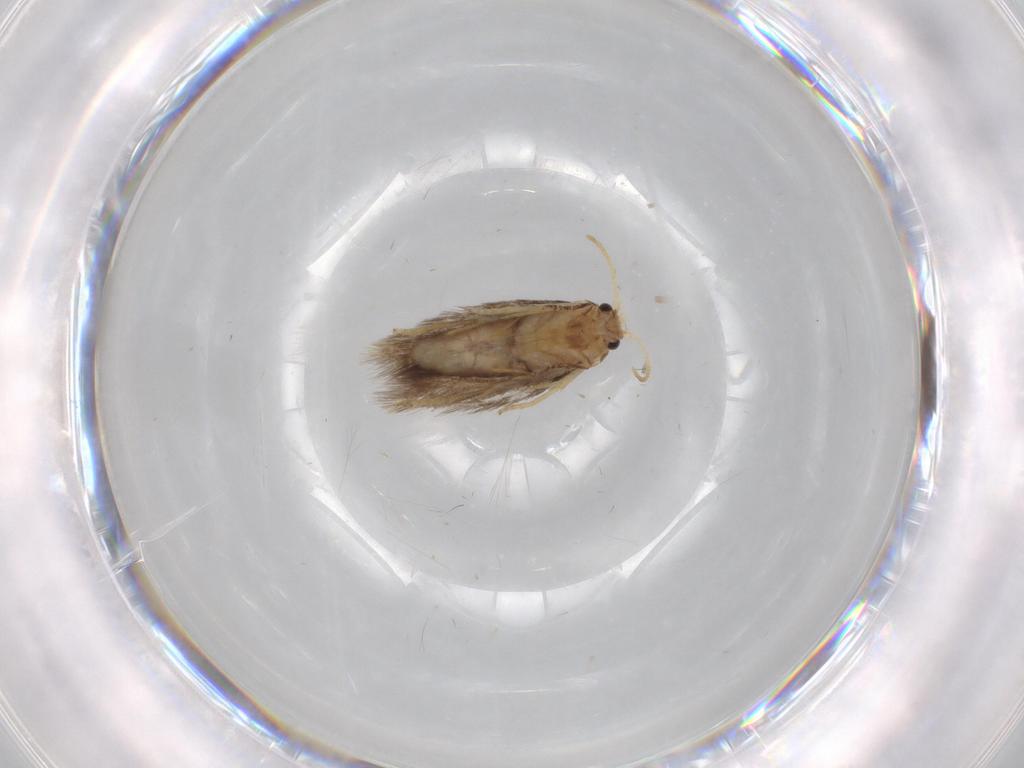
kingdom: Animalia
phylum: Arthropoda
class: Insecta
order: Lepidoptera
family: Nepticulidae
